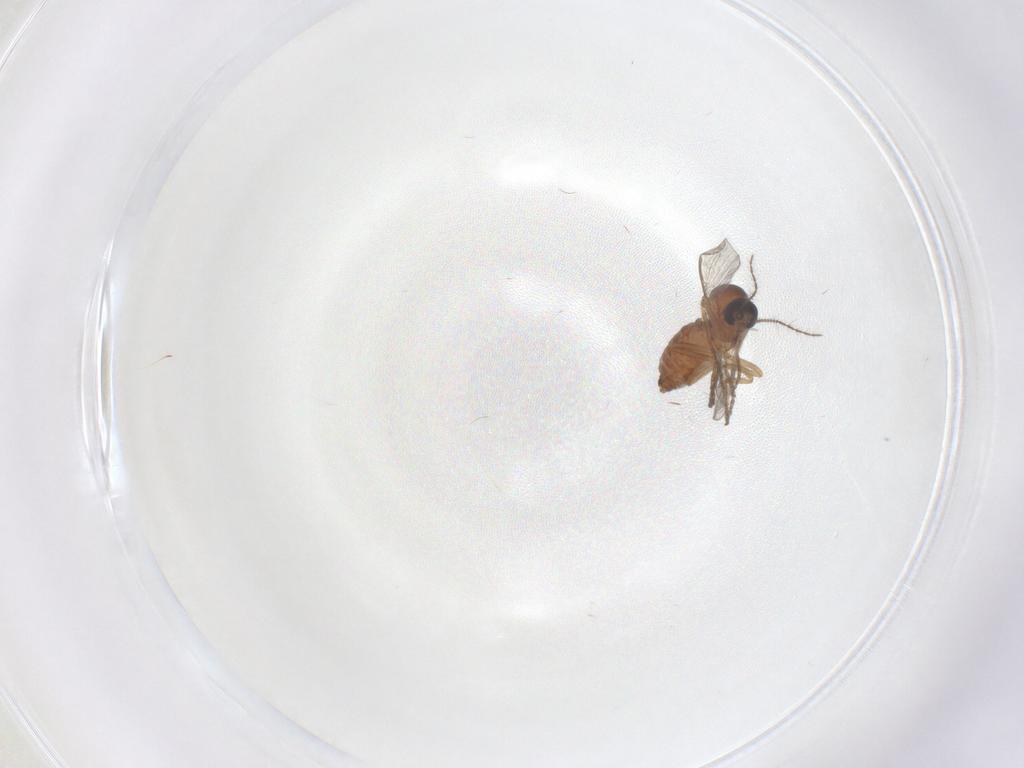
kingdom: Animalia
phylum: Arthropoda
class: Insecta
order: Diptera
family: Ceratopogonidae
